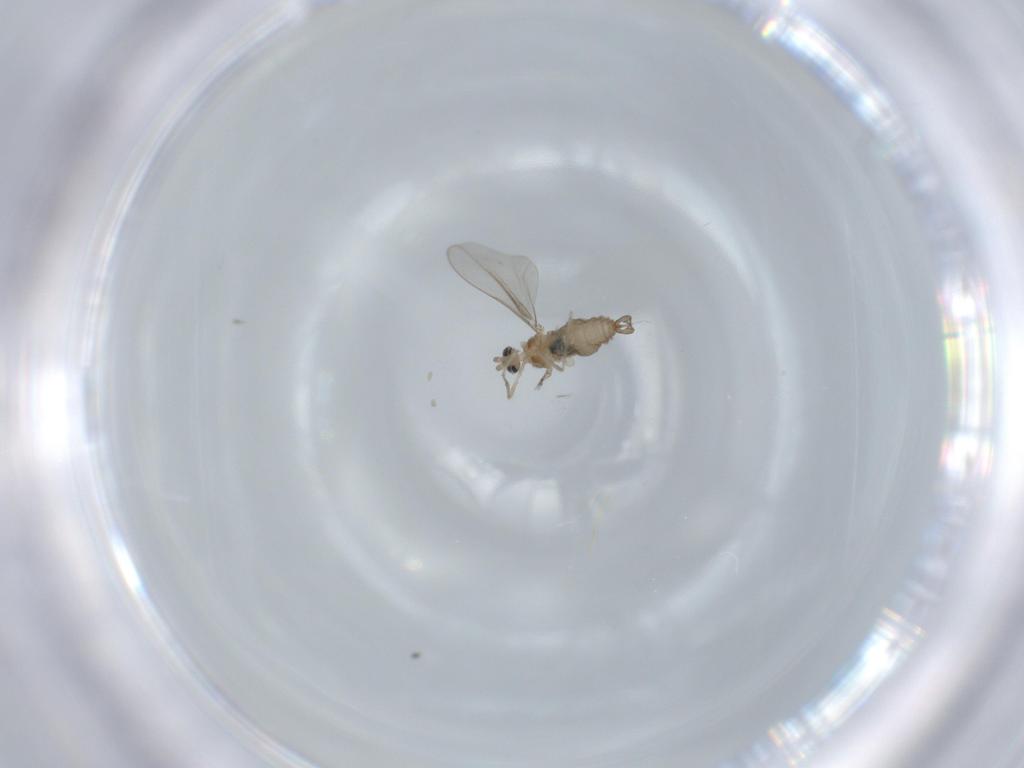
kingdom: Animalia
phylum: Arthropoda
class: Insecta
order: Diptera
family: Cecidomyiidae
